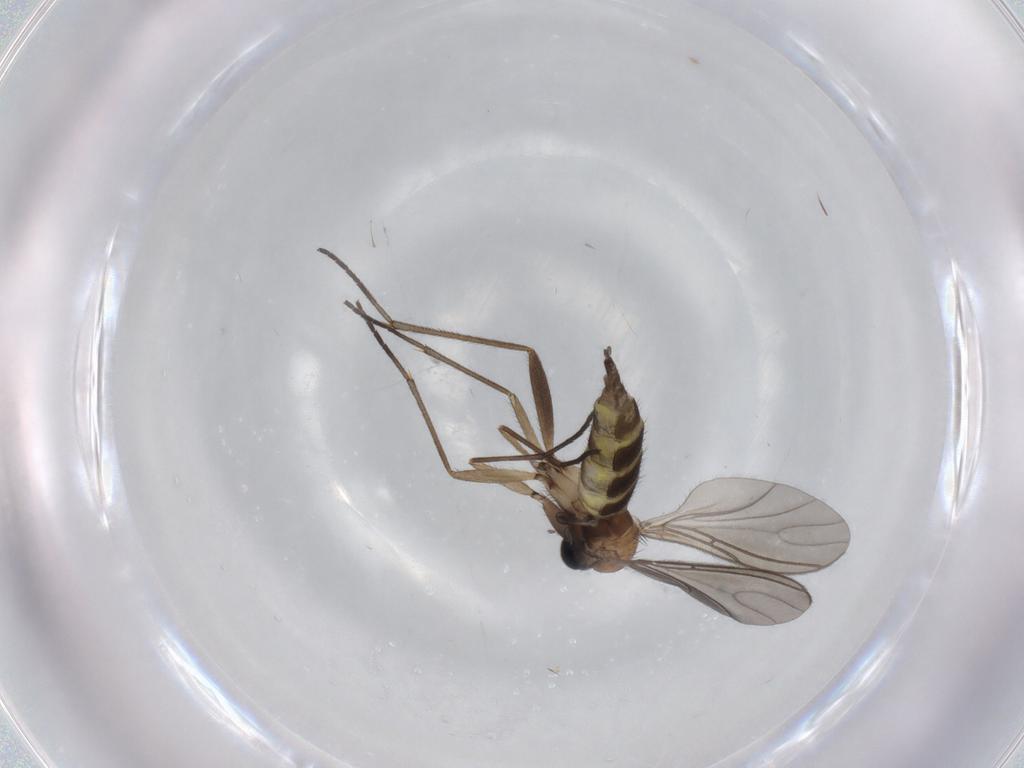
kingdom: Animalia
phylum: Arthropoda
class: Insecta
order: Diptera
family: Sciaridae
